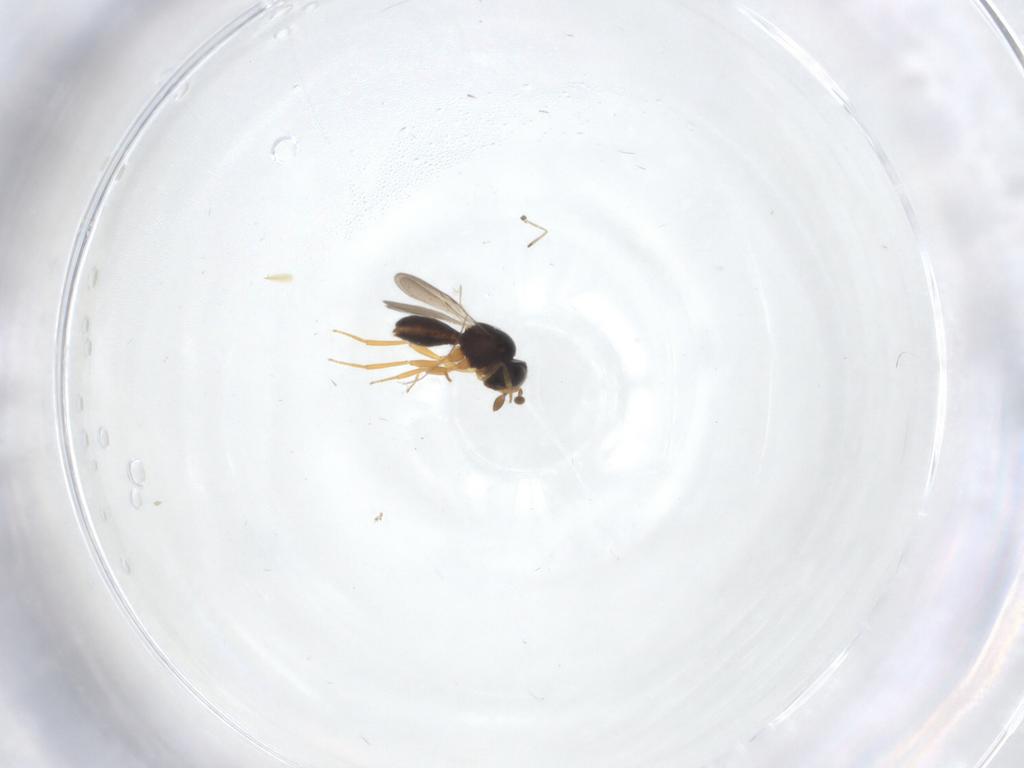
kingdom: Animalia
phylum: Arthropoda
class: Insecta
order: Hymenoptera
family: Scelionidae
